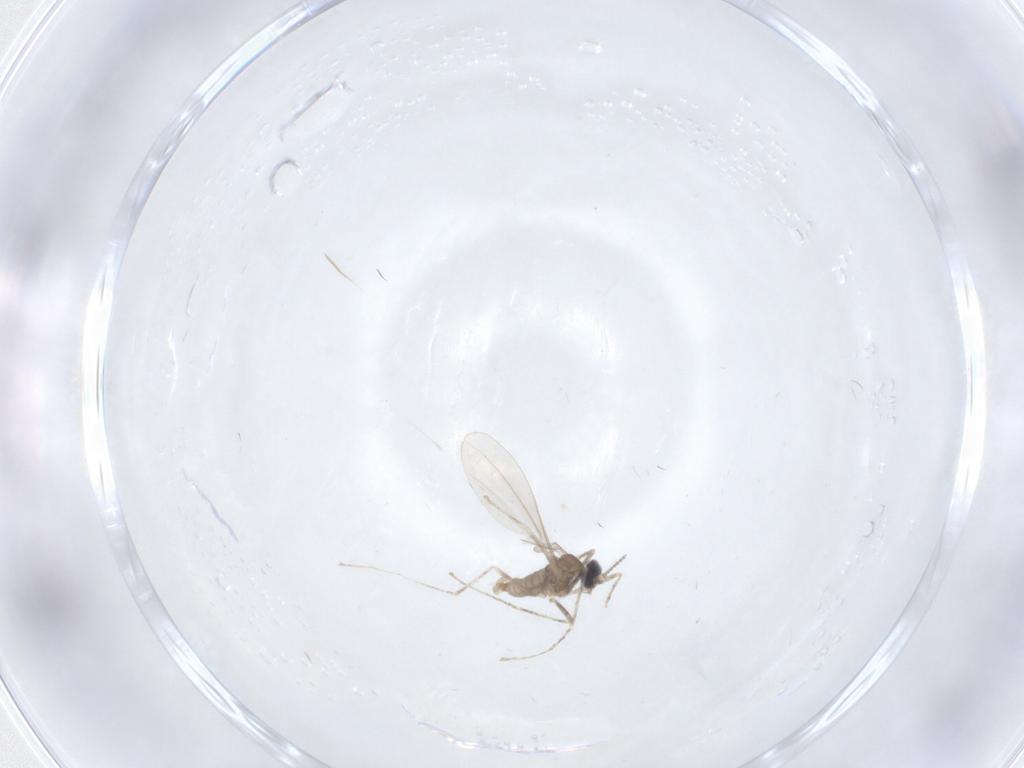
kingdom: Animalia
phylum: Arthropoda
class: Insecta
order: Diptera
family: Cecidomyiidae
